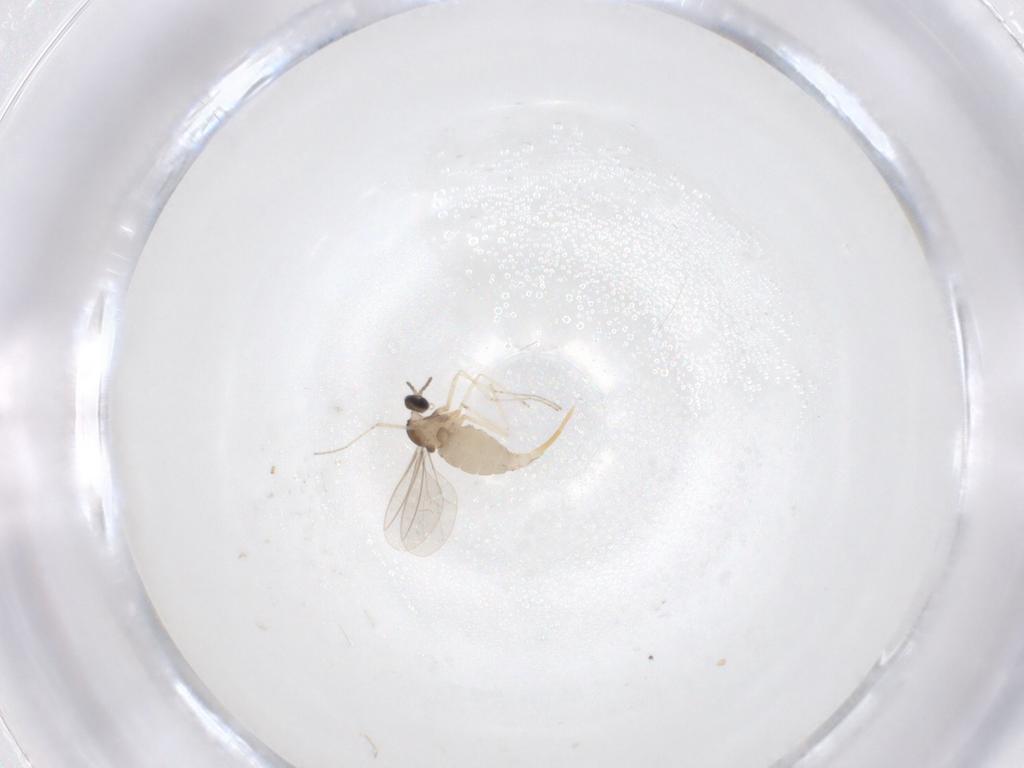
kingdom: Animalia
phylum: Arthropoda
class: Insecta
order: Diptera
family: Cecidomyiidae
